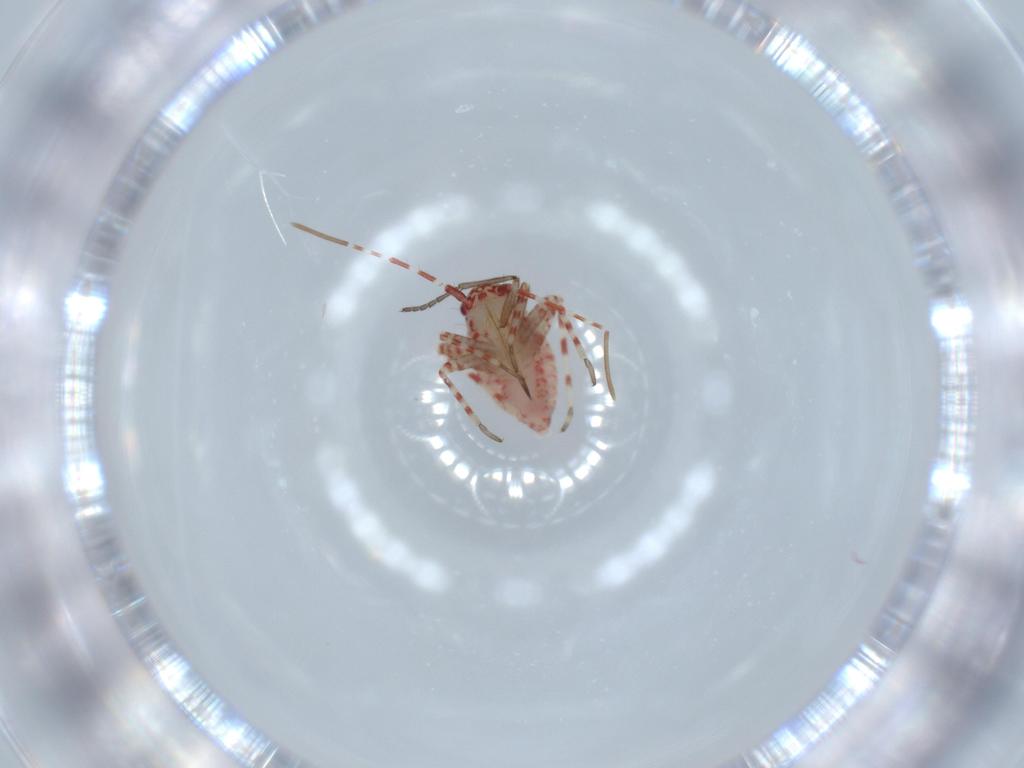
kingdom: Animalia
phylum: Arthropoda
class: Insecta
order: Hemiptera
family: Miridae
